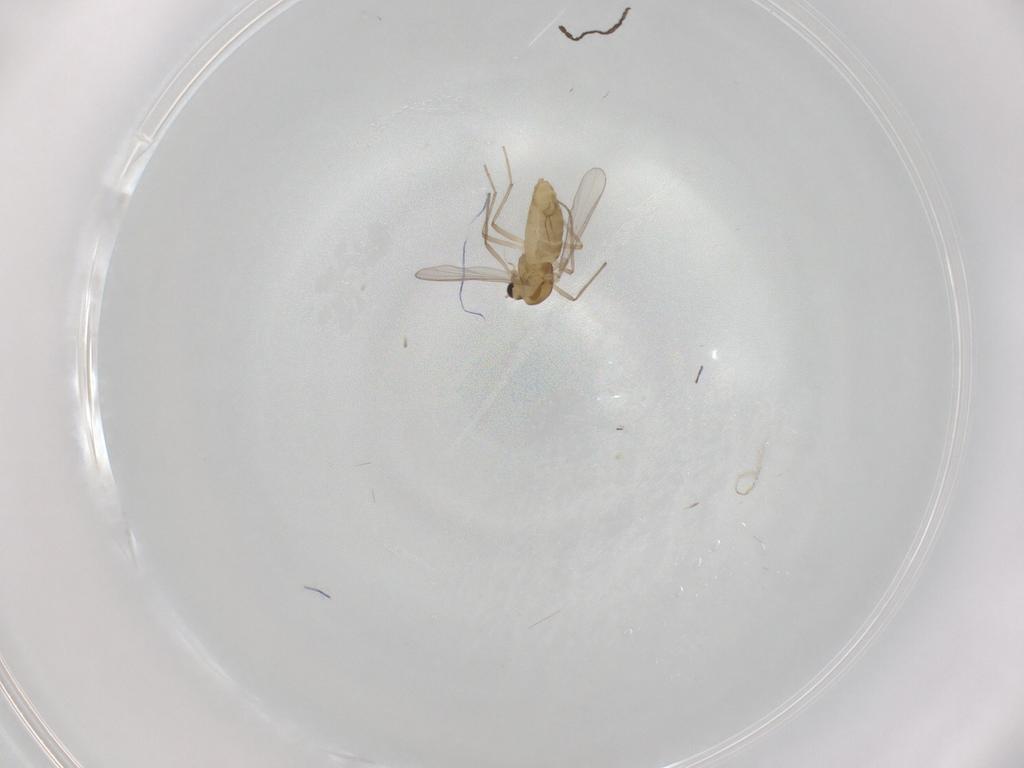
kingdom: Animalia
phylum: Arthropoda
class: Insecta
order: Diptera
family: Chironomidae
